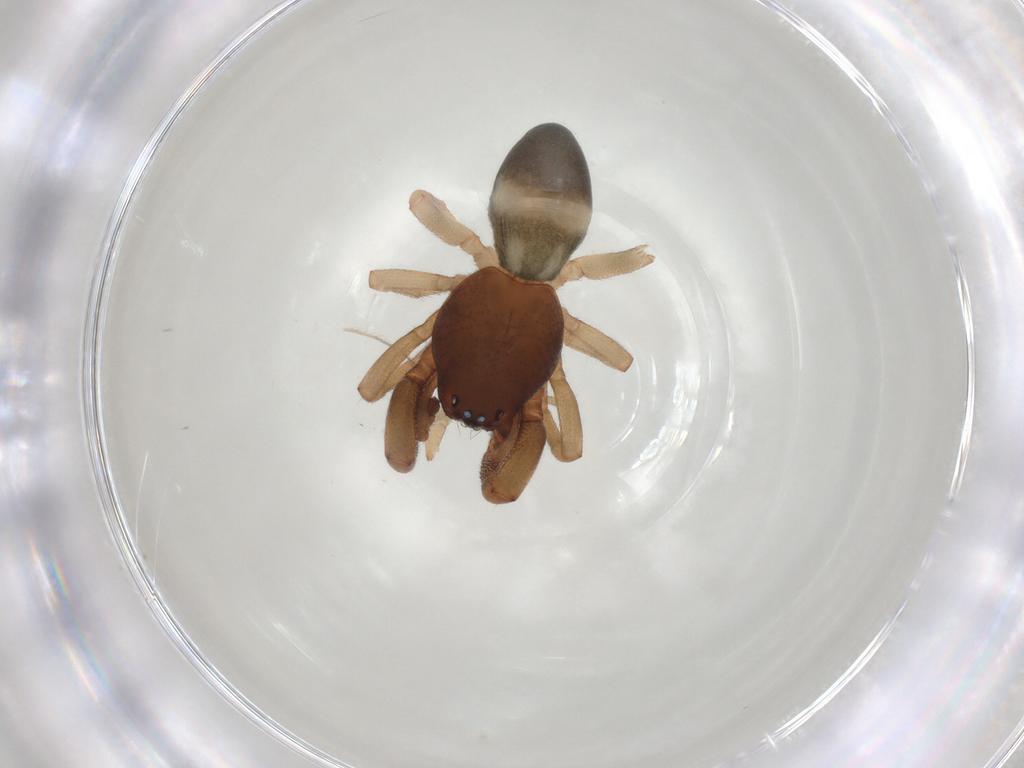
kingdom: Animalia
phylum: Arthropoda
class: Arachnida
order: Araneae
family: Trachelidae
